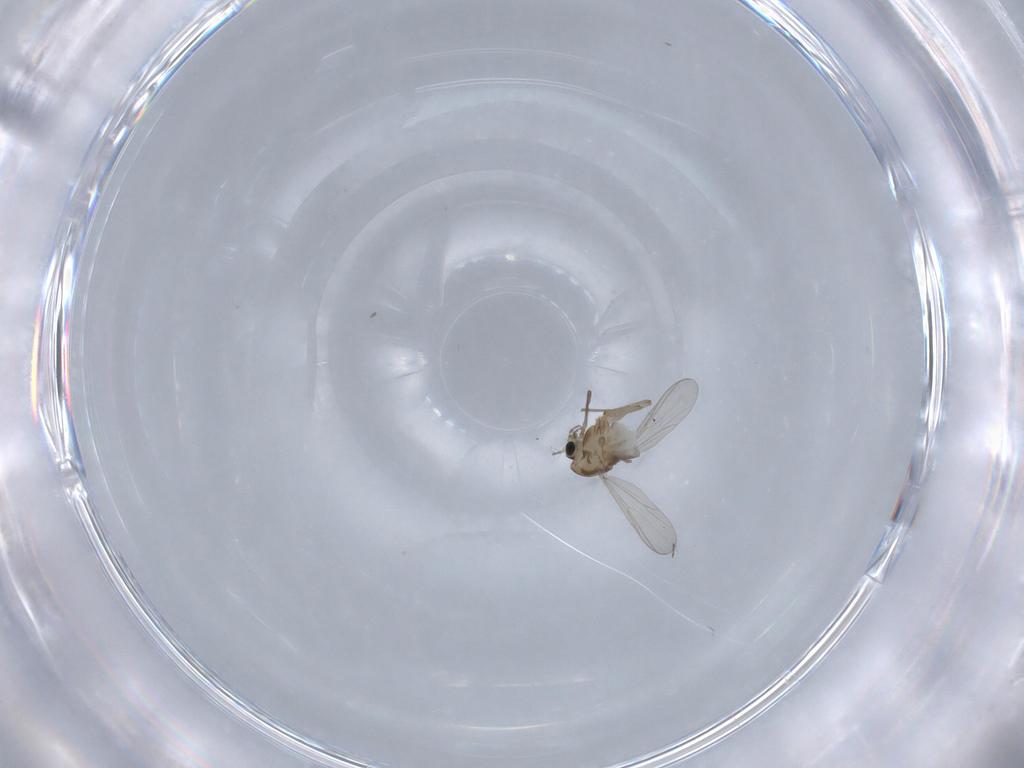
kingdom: Animalia
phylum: Arthropoda
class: Insecta
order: Diptera
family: Chironomidae
